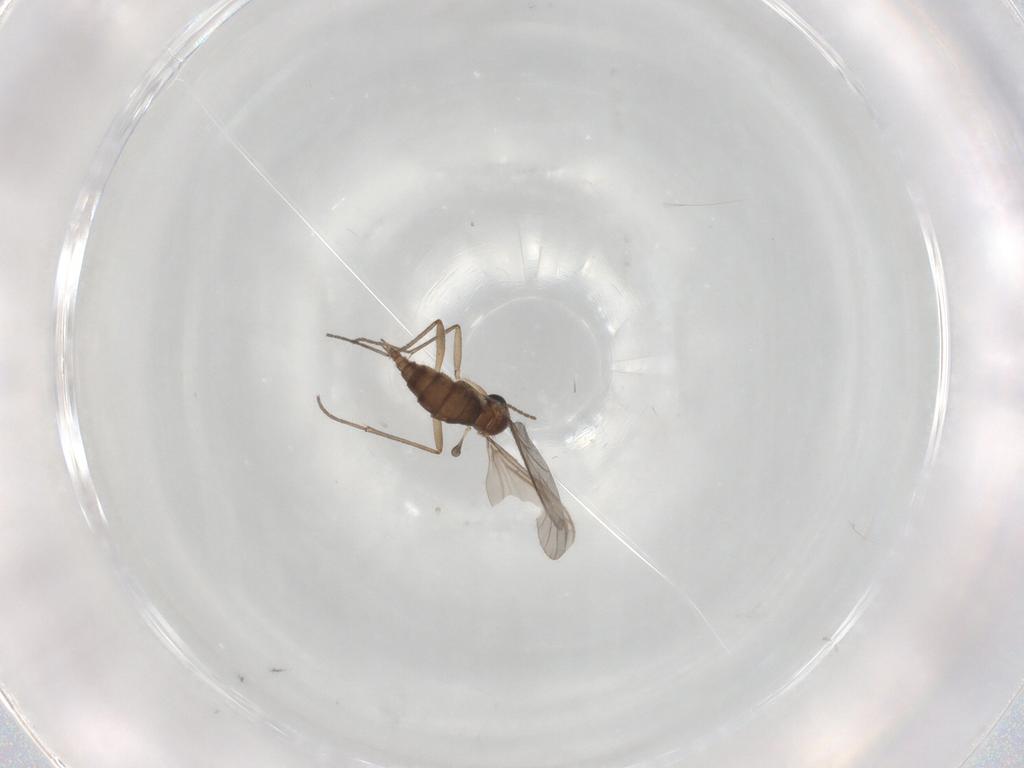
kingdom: Animalia
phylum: Arthropoda
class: Insecta
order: Diptera
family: Sciaridae
